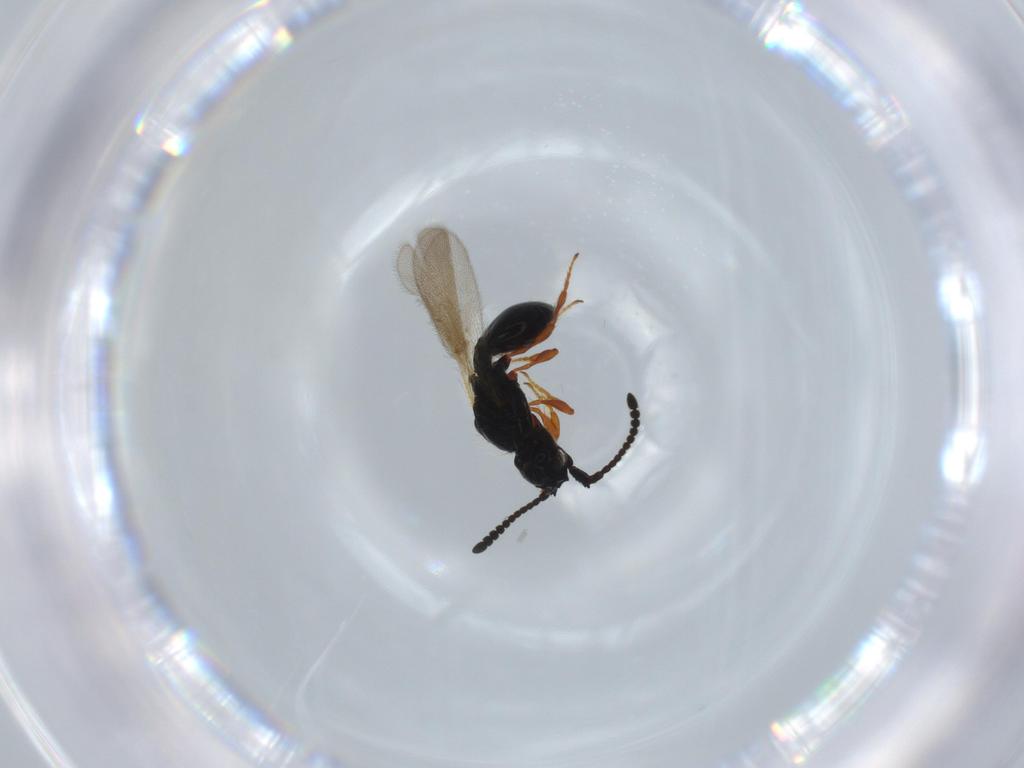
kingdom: Animalia
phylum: Arthropoda
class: Insecta
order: Hymenoptera
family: Diapriidae
